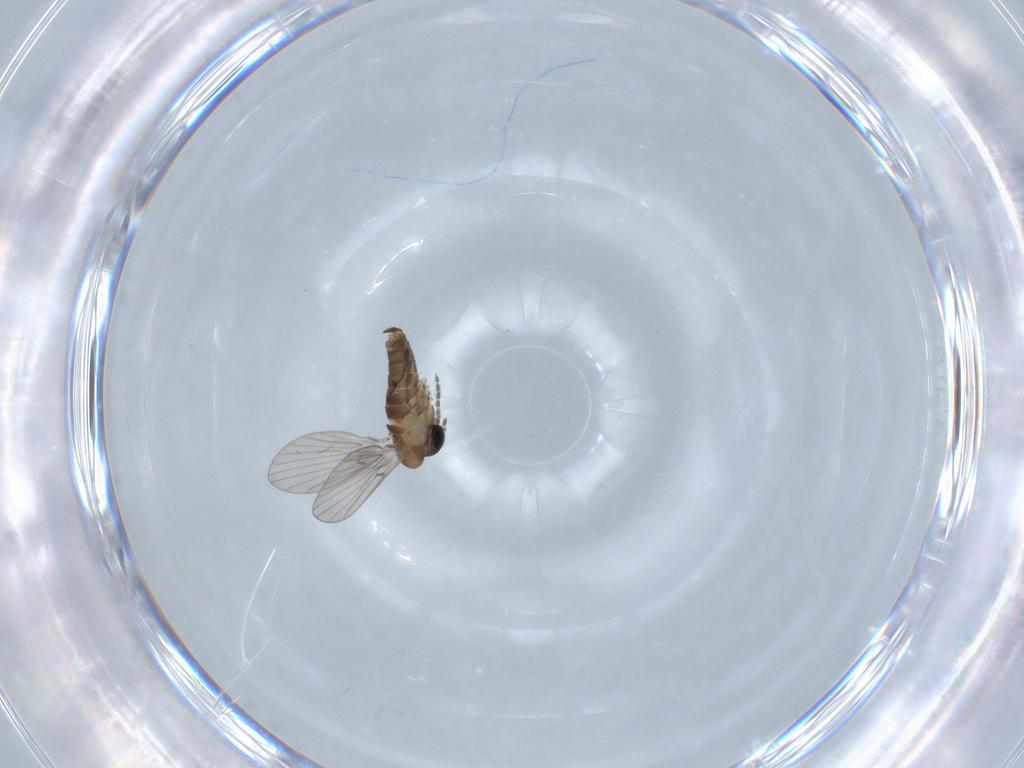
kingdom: Animalia
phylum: Arthropoda
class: Insecta
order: Diptera
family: Psychodidae
